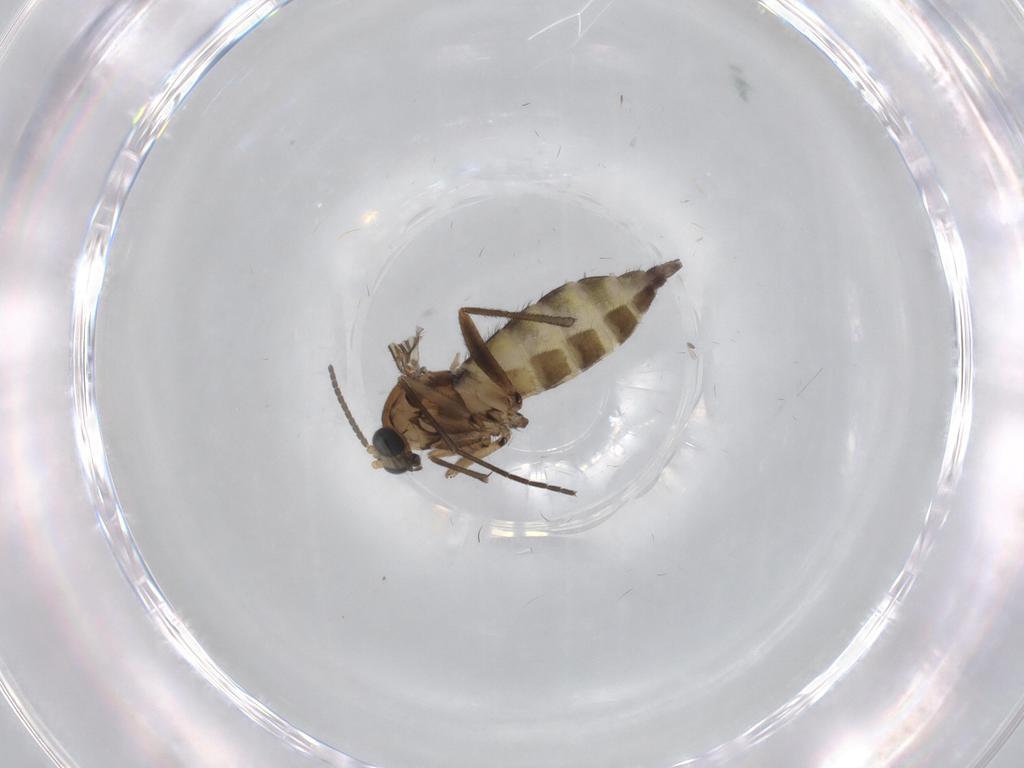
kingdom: Animalia
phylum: Arthropoda
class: Insecta
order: Diptera
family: Sciaridae
